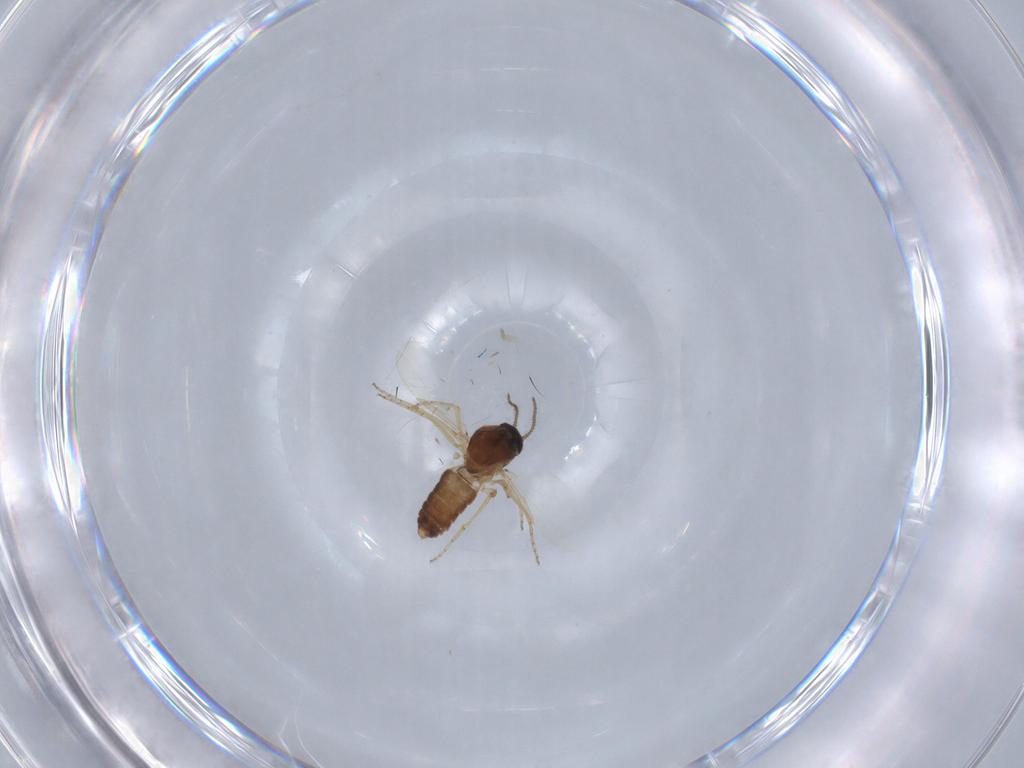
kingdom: Animalia
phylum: Arthropoda
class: Insecta
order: Diptera
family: Ceratopogonidae
